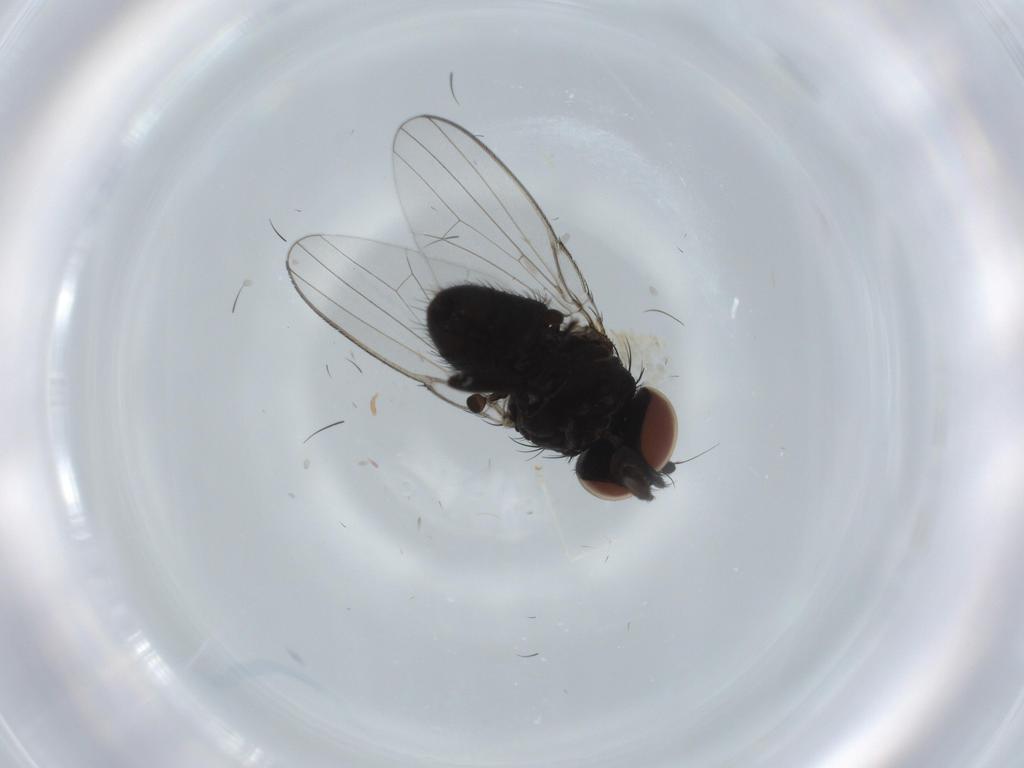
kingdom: Animalia
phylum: Arthropoda
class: Insecta
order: Diptera
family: Milichiidae
